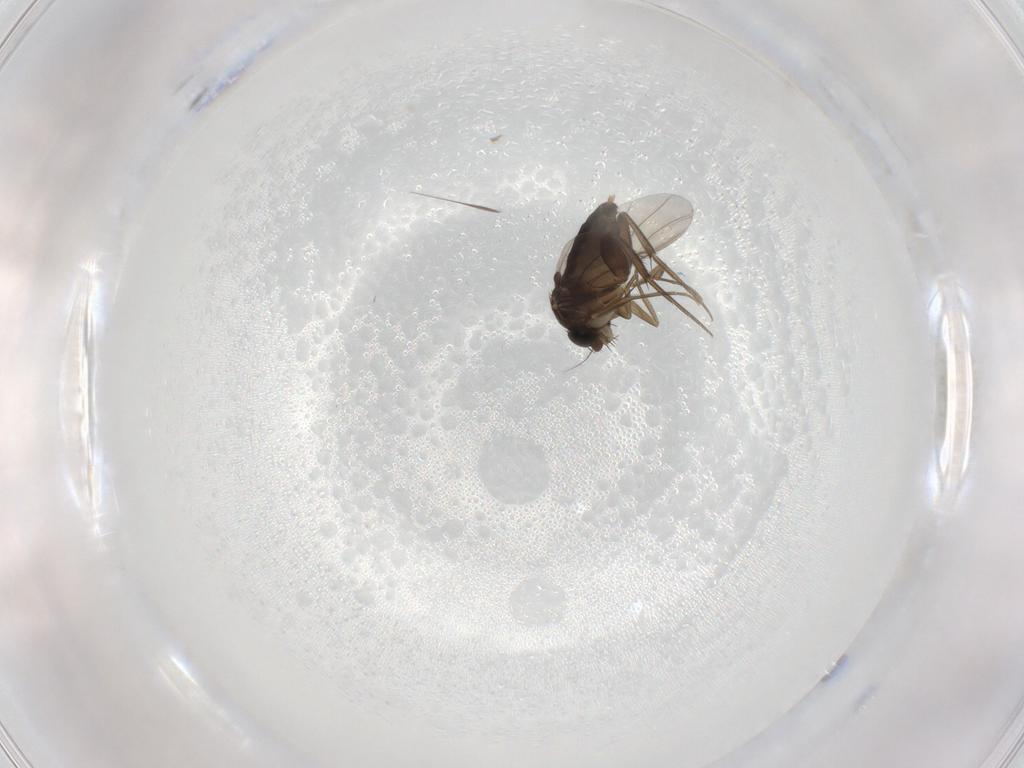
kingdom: Animalia
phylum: Arthropoda
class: Insecta
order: Diptera
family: Phoridae
